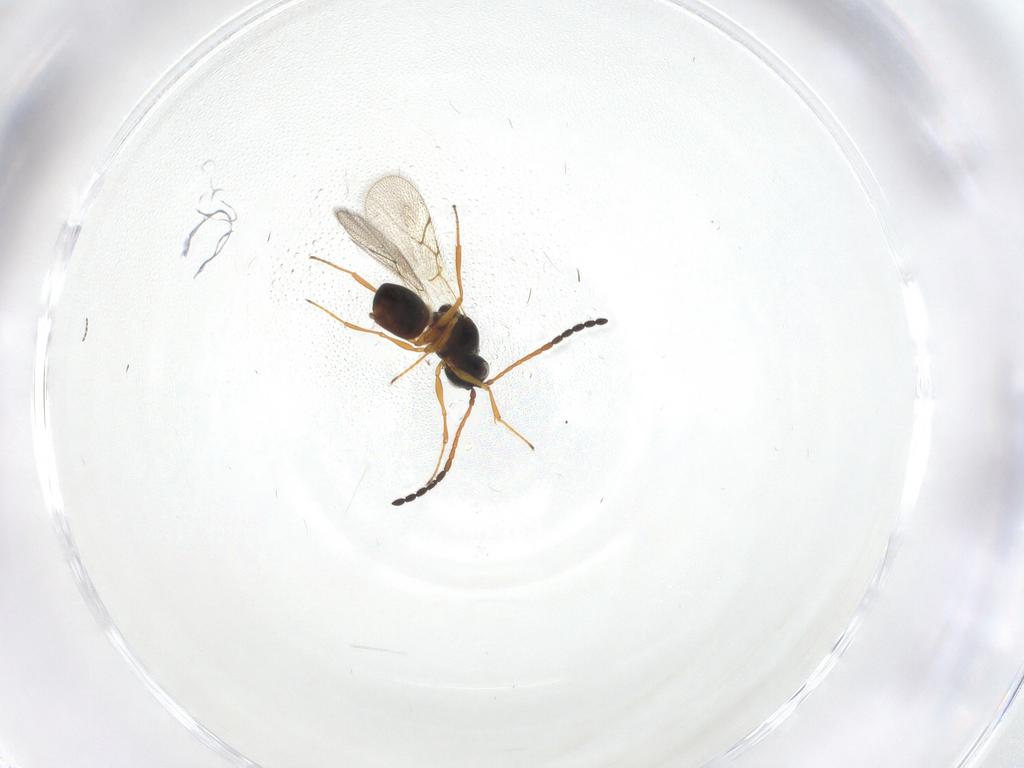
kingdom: Animalia
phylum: Arthropoda
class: Insecta
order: Hymenoptera
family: Figitidae
